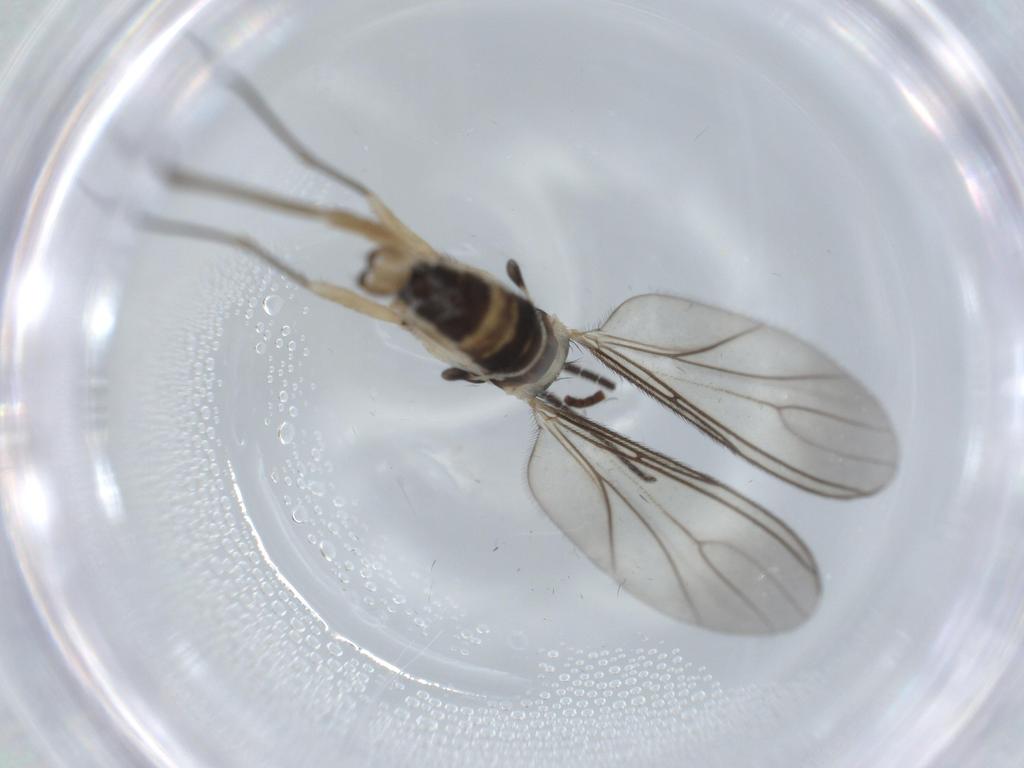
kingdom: Animalia
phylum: Arthropoda
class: Insecta
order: Diptera
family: Sciaridae
